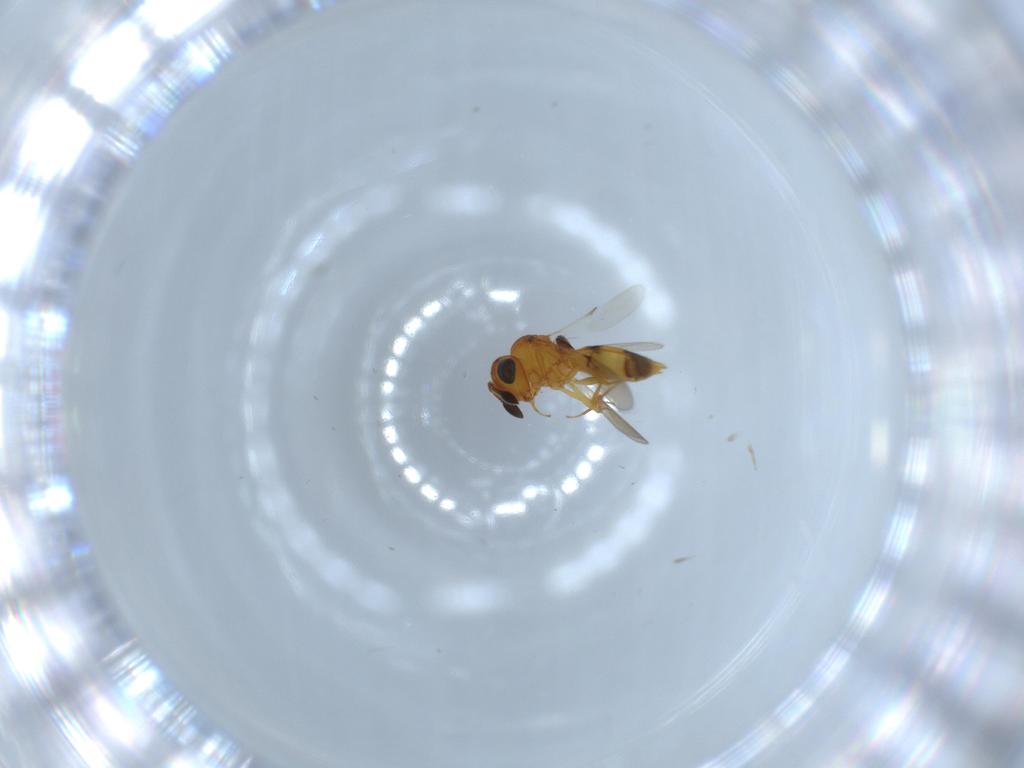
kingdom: Animalia
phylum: Arthropoda
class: Insecta
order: Hymenoptera
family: Scelionidae
